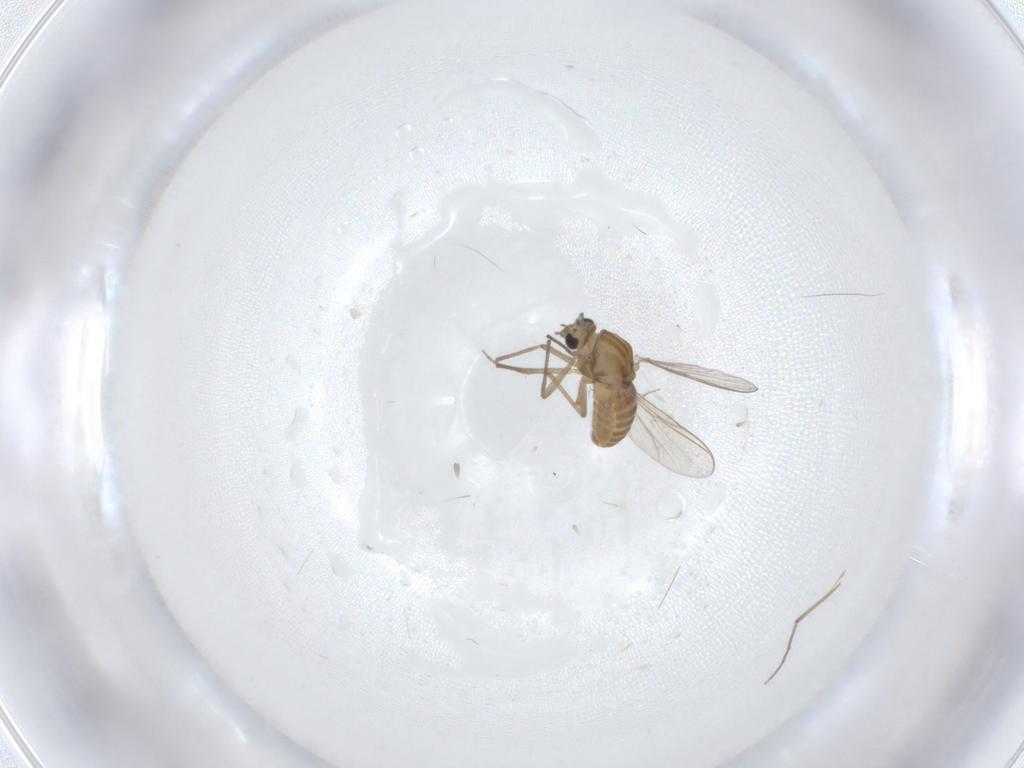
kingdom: Animalia
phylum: Arthropoda
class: Insecta
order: Diptera
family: Chironomidae
